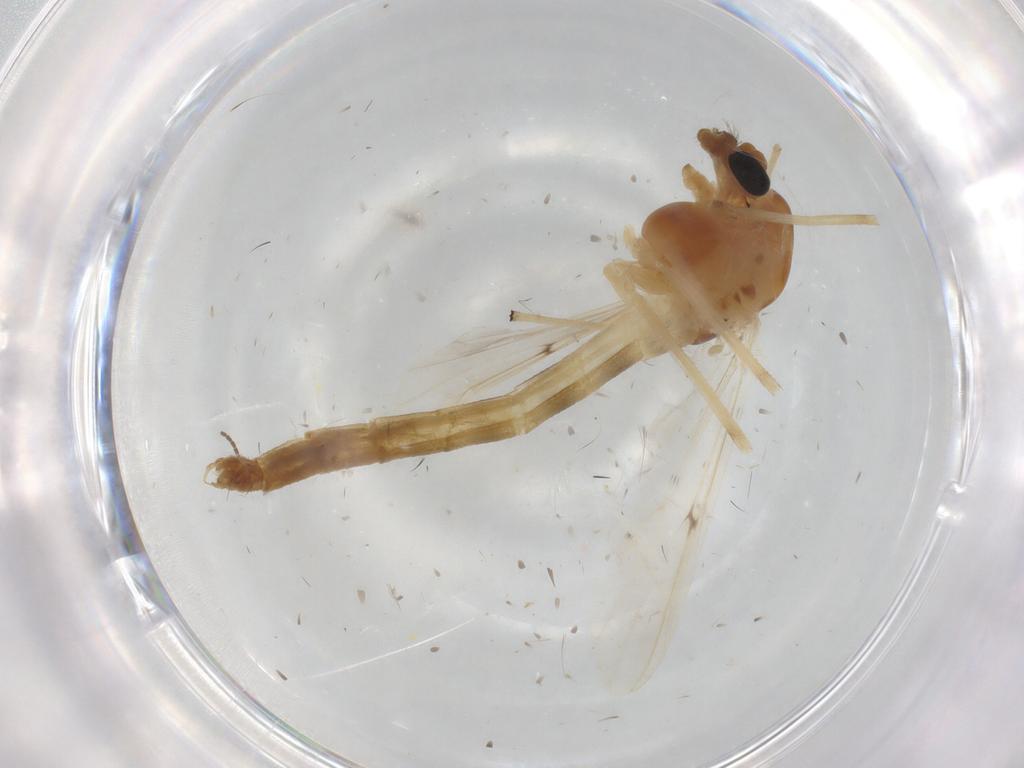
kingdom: Animalia
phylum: Arthropoda
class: Insecta
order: Diptera
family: Sciaridae
